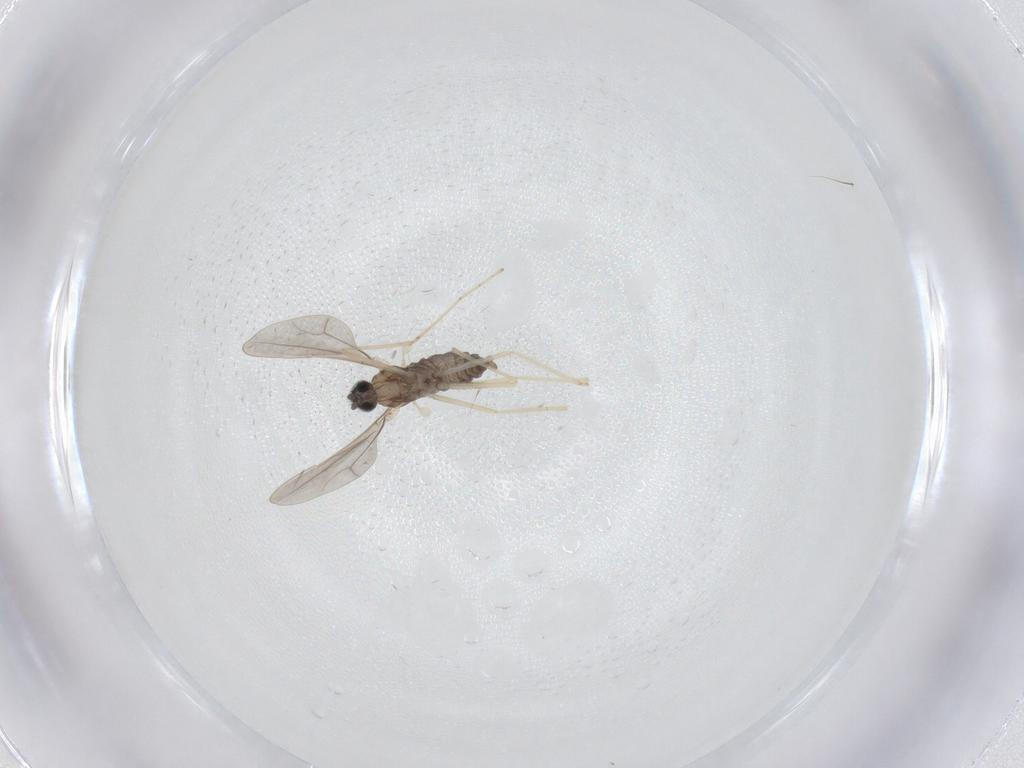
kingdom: Animalia
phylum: Arthropoda
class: Insecta
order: Diptera
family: Cecidomyiidae
